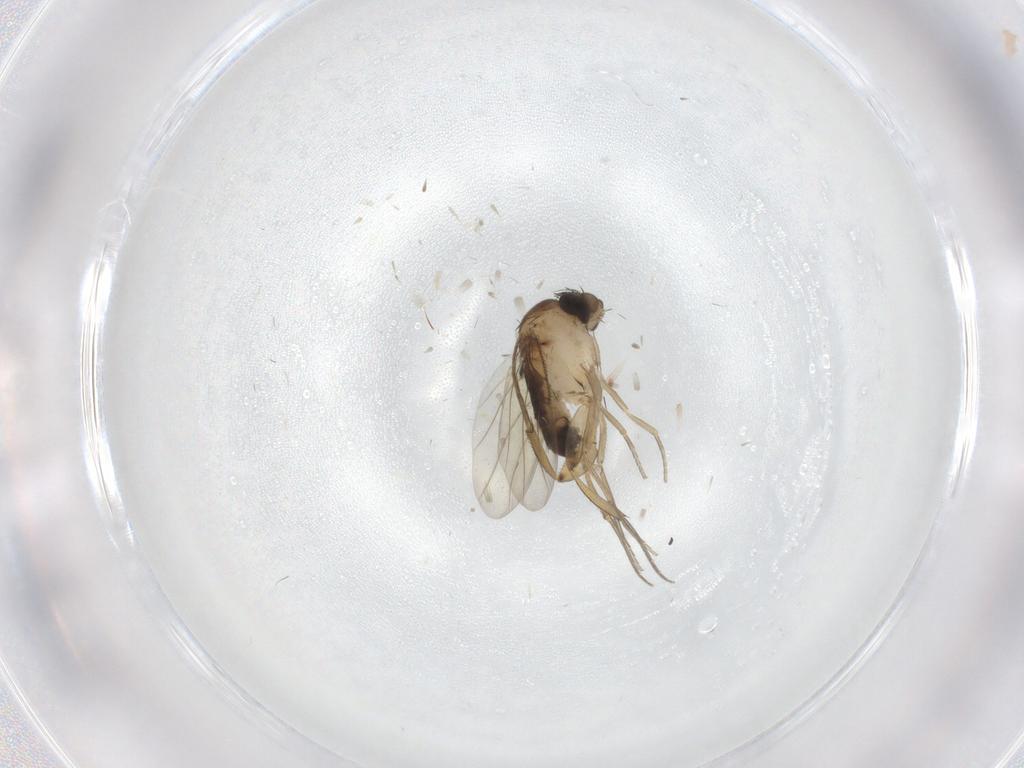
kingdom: Animalia
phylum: Arthropoda
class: Insecta
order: Diptera
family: Phoridae
